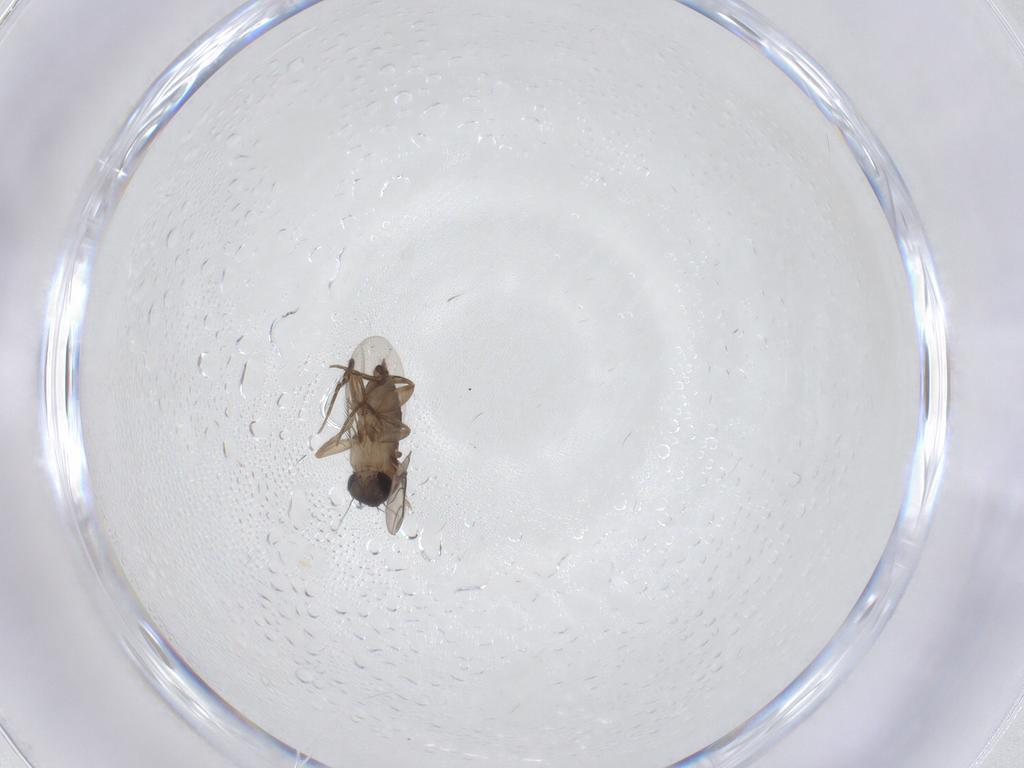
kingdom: Animalia
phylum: Arthropoda
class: Insecta
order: Diptera
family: Phoridae
